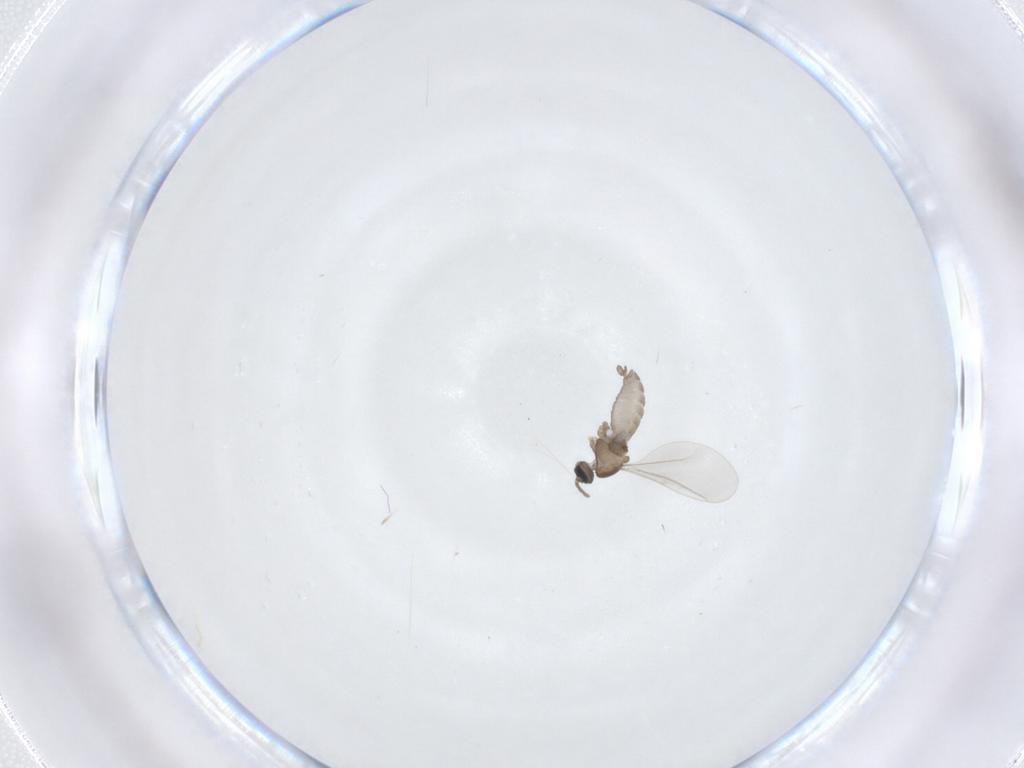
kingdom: Animalia
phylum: Arthropoda
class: Insecta
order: Diptera
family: Cecidomyiidae
